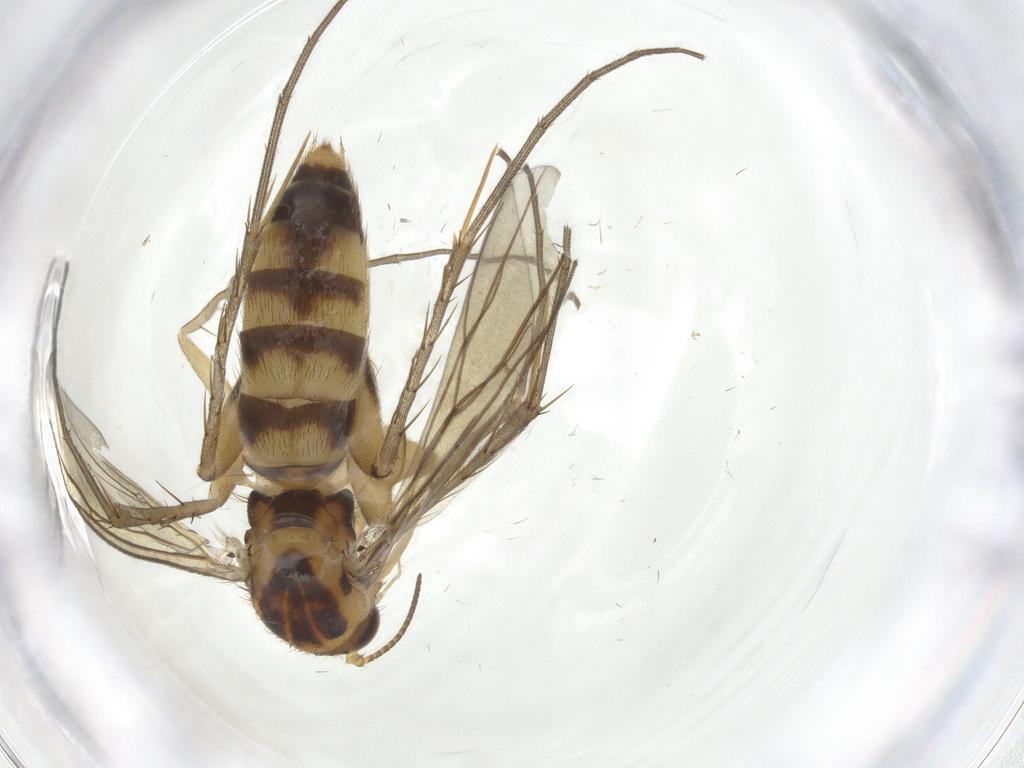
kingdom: Animalia
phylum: Arthropoda
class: Insecta
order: Diptera
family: Mycetophilidae
